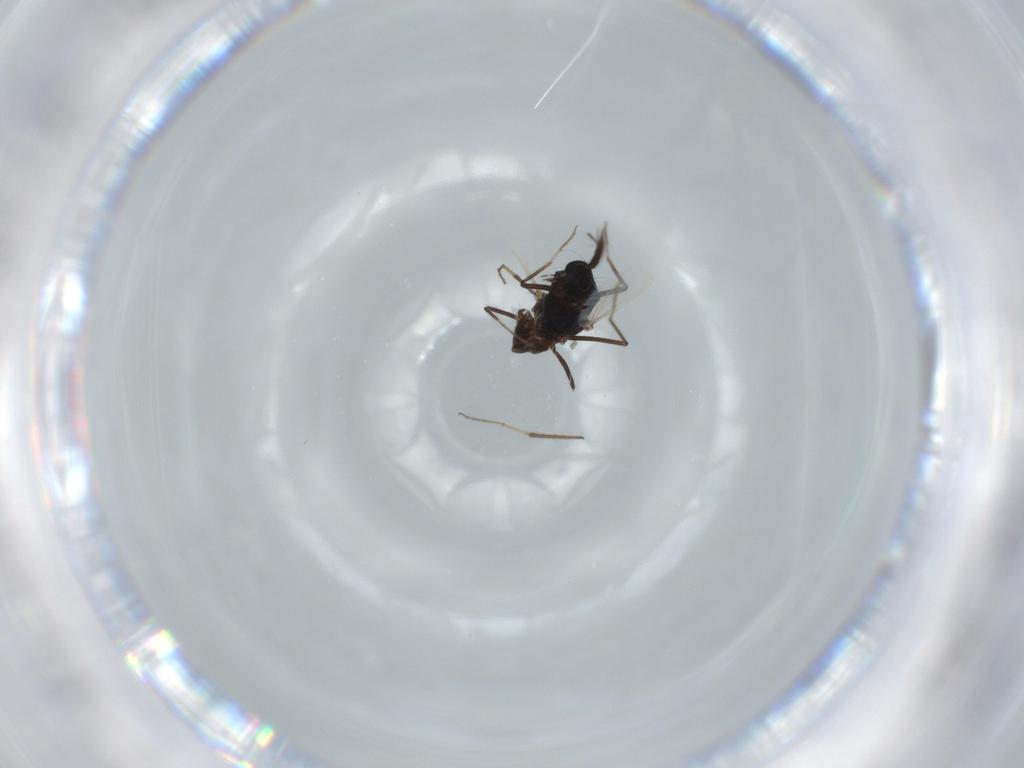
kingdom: Animalia
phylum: Arthropoda
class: Insecta
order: Diptera
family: Ceratopogonidae
